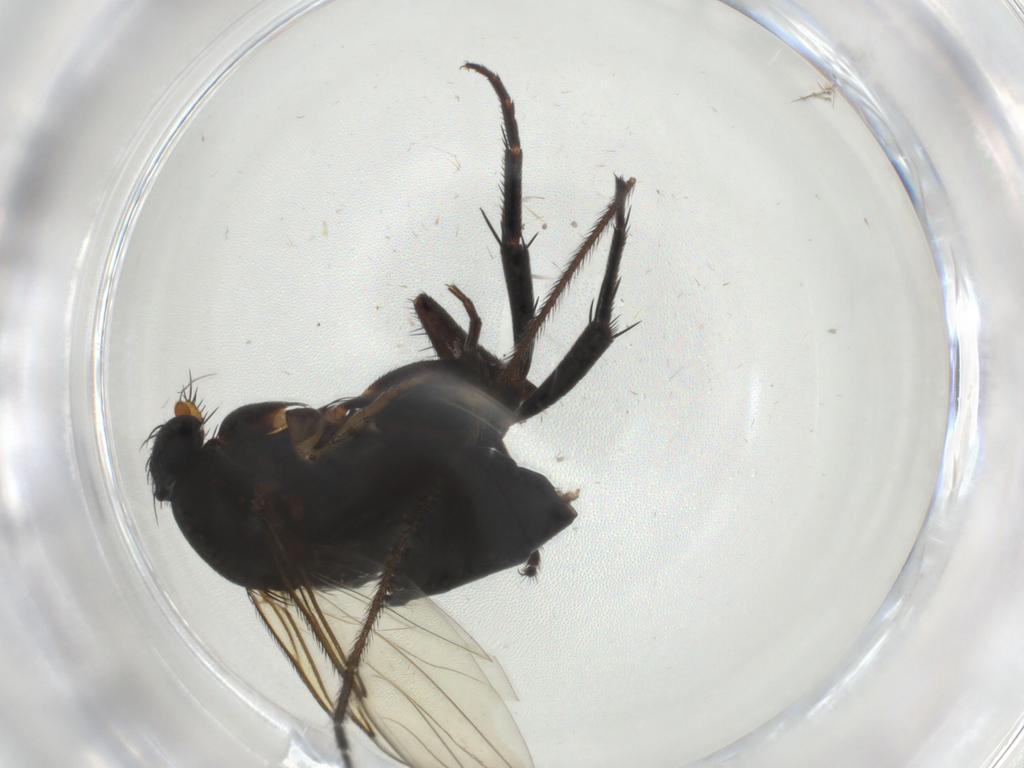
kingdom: Animalia
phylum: Arthropoda
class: Insecta
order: Diptera
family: Phoridae
